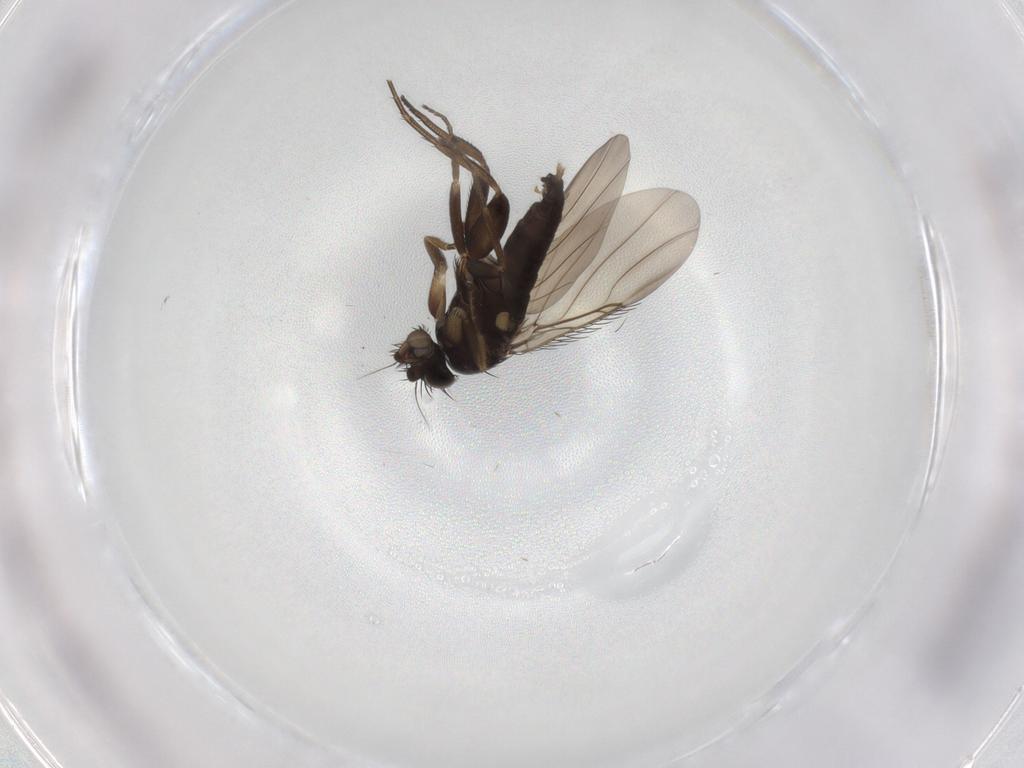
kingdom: Animalia
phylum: Arthropoda
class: Insecta
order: Diptera
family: Phoridae
